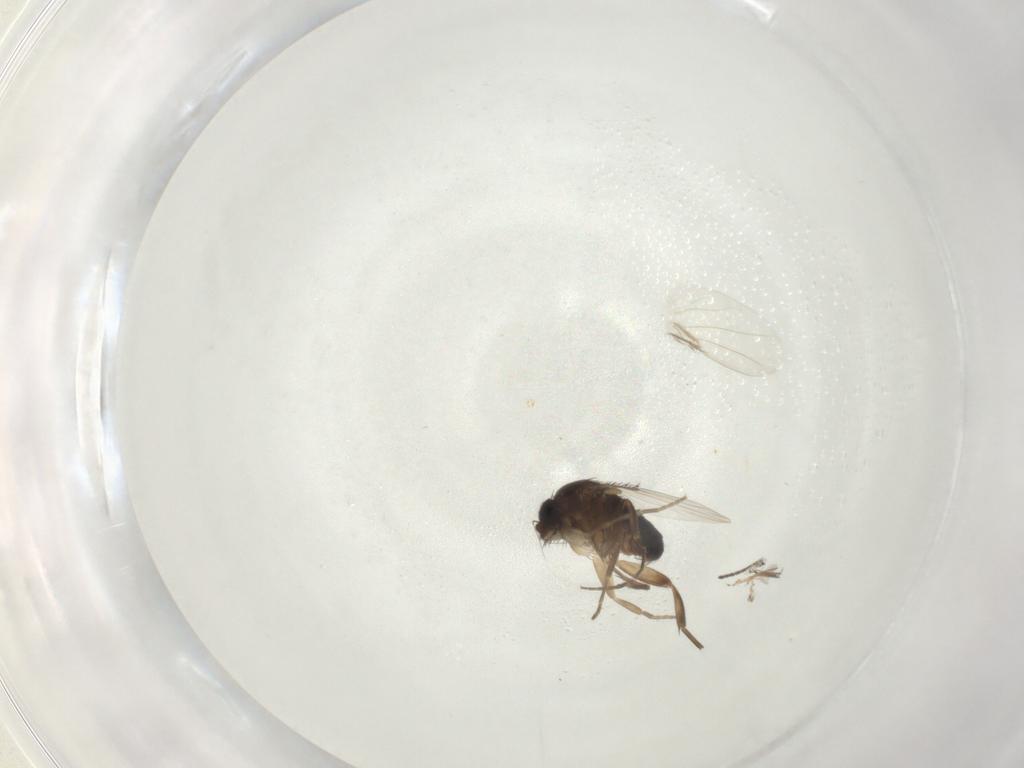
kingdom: Animalia
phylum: Arthropoda
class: Insecta
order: Diptera
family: Phoridae
